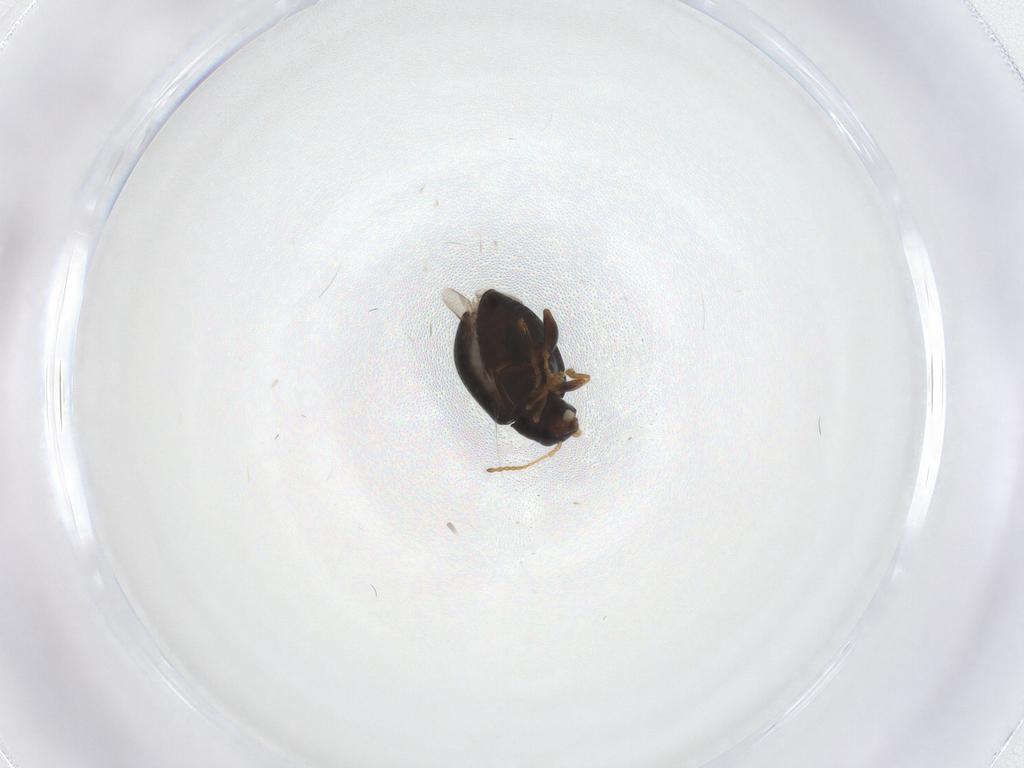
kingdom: Animalia
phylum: Arthropoda
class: Insecta
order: Coleoptera
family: Chrysomelidae
